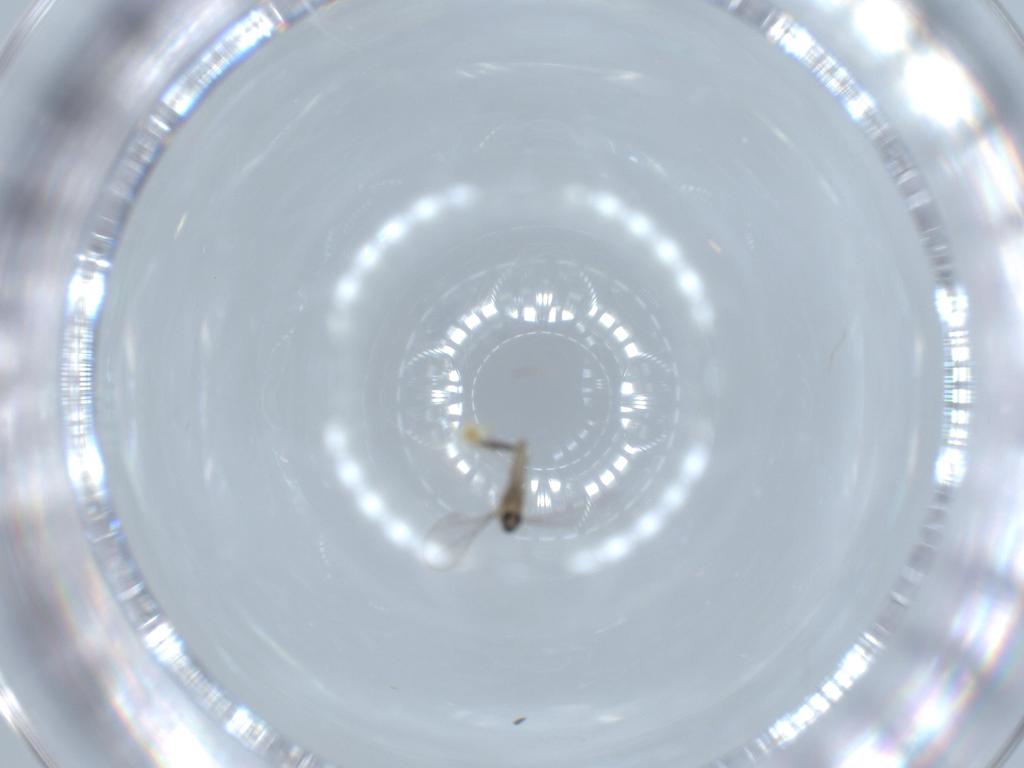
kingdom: Animalia
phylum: Arthropoda
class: Insecta
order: Diptera
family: Cecidomyiidae
